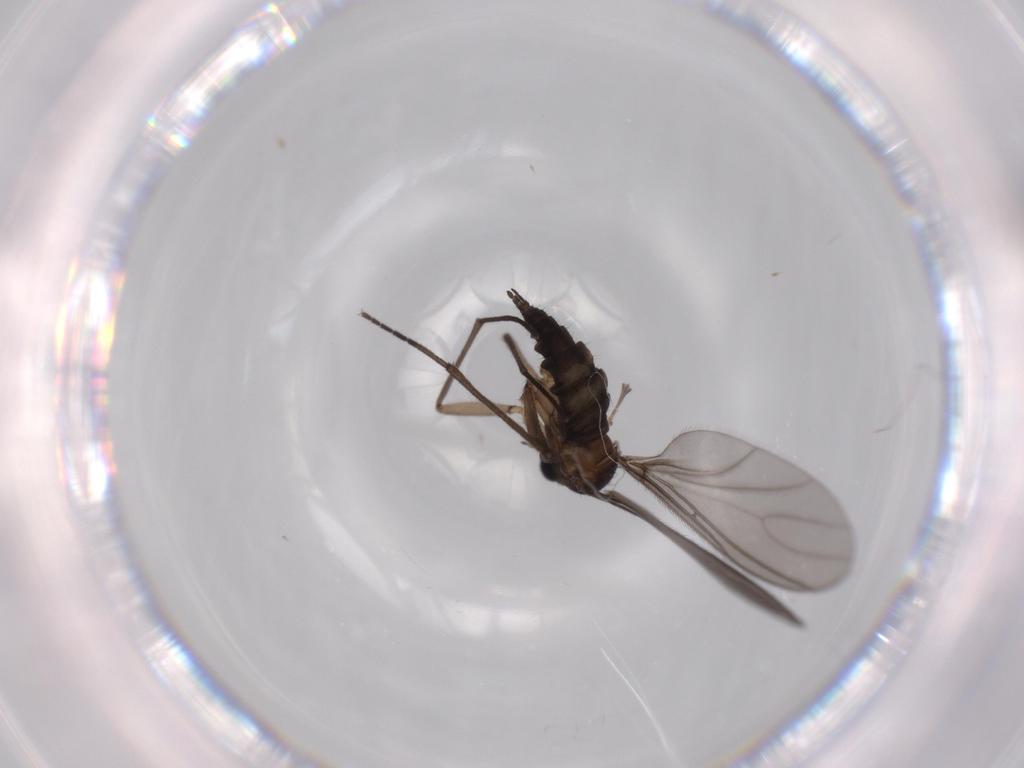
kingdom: Animalia
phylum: Arthropoda
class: Insecta
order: Diptera
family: Sciaridae
